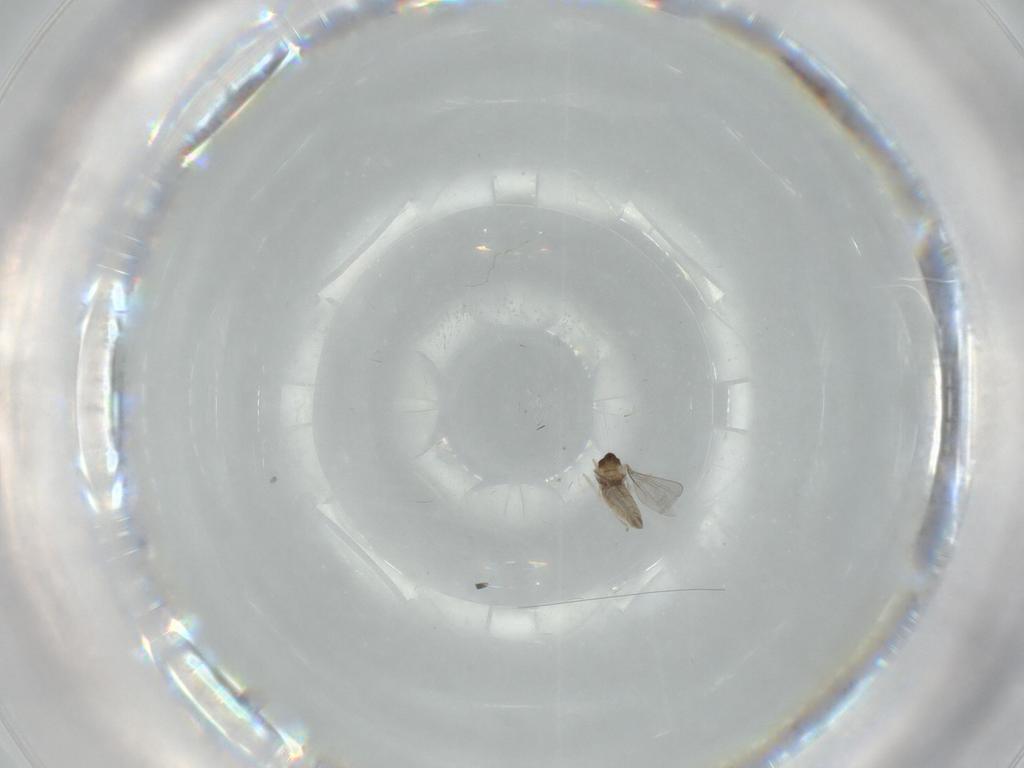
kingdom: Animalia
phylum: Arthropoda
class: Insecta
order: Diptera
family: Cecidomyiidae
